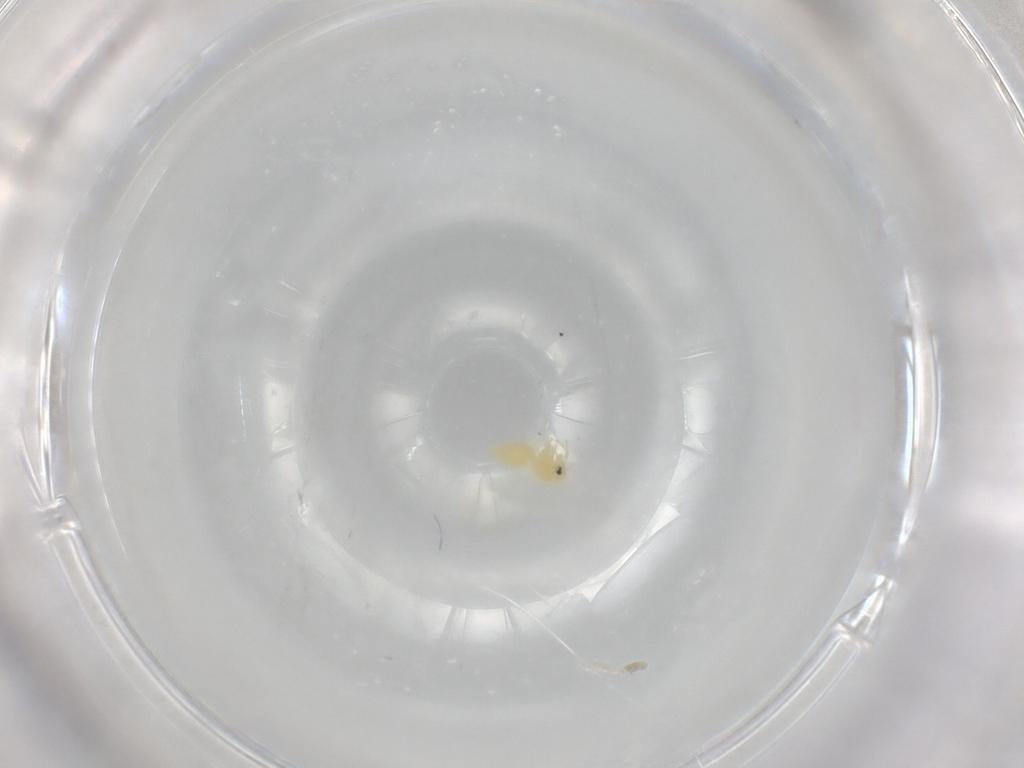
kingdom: Animalia
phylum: Arthropoda
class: Insecta
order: Hemiptera
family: Aleyrodidae
